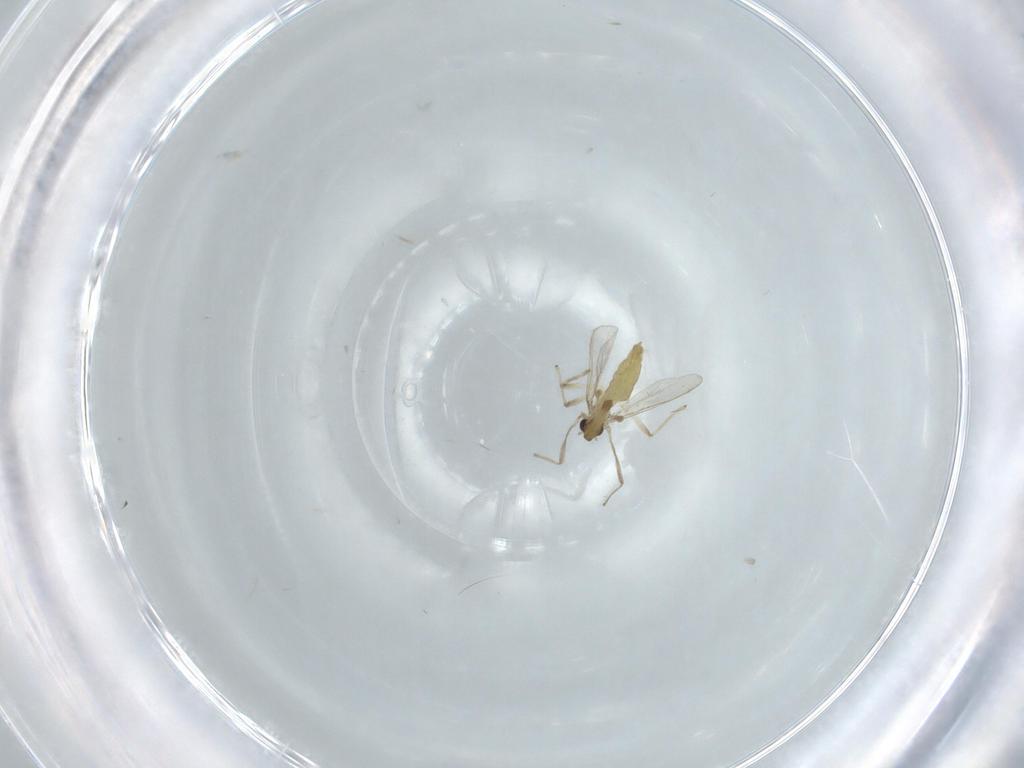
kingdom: Animalia
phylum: Arthropoda
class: Insecta
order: Diptera
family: Chironomidae
